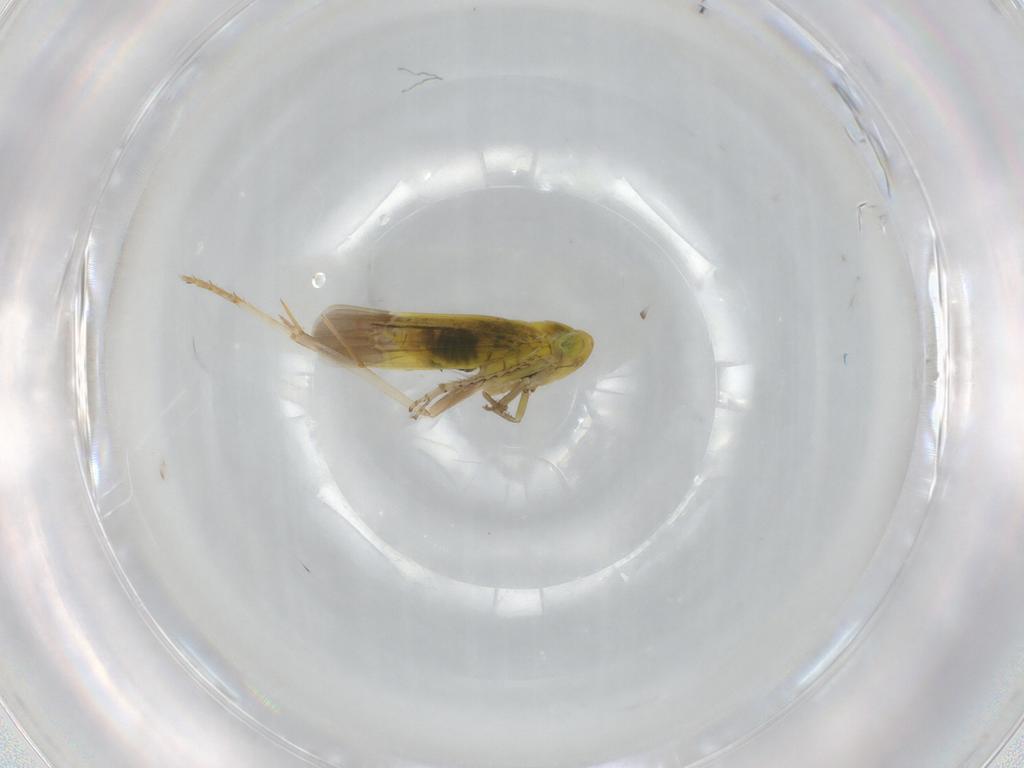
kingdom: Animalia
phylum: Arthropoda
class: Insecta
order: Hemiptera
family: Cicadellidae
